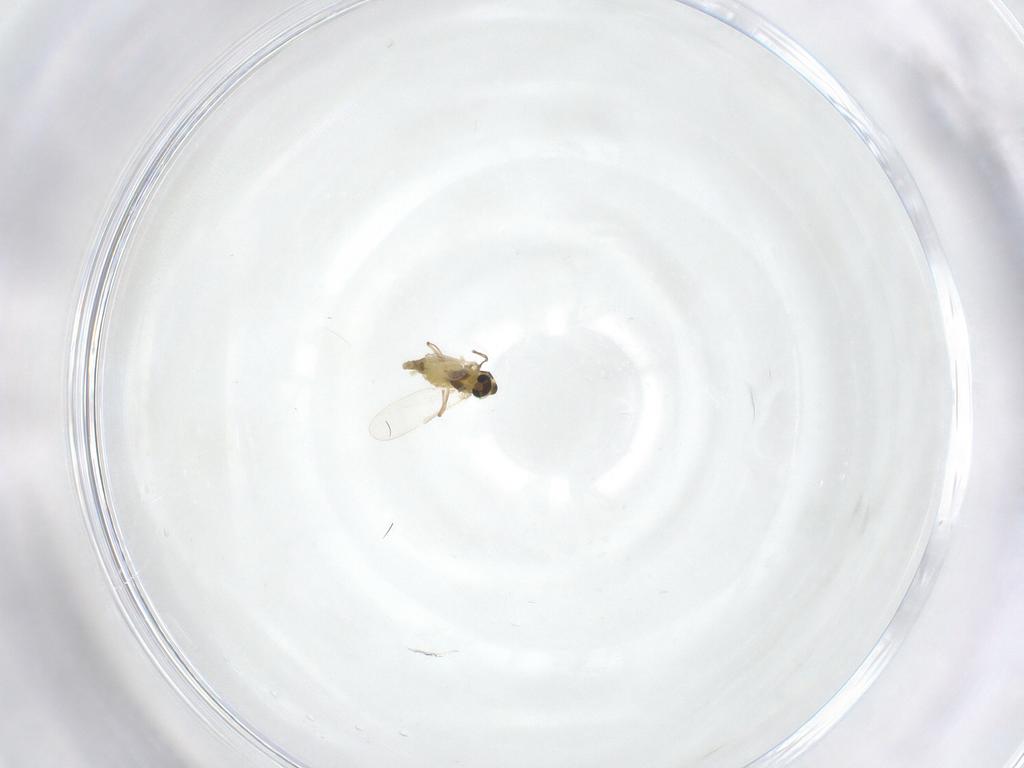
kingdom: Animalia
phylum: Arthropoda
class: Insecta
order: Diptera
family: Chironomidae
